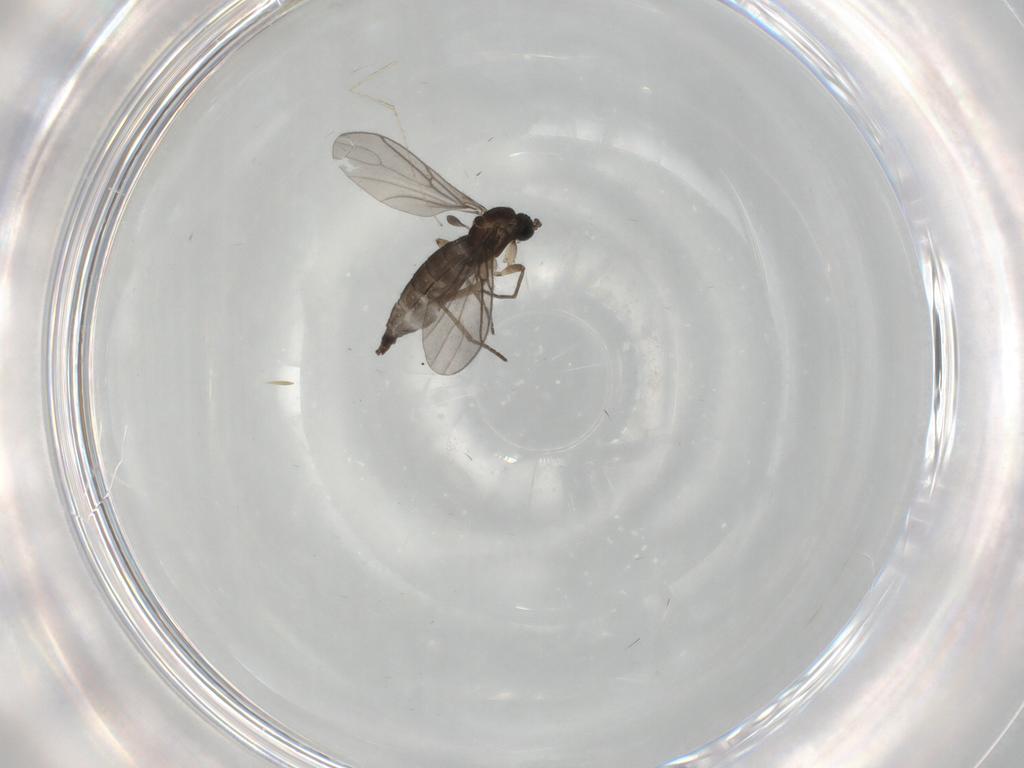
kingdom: Animalia
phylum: Arthropoda
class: Insecta
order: Diptera
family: Sciaridae
